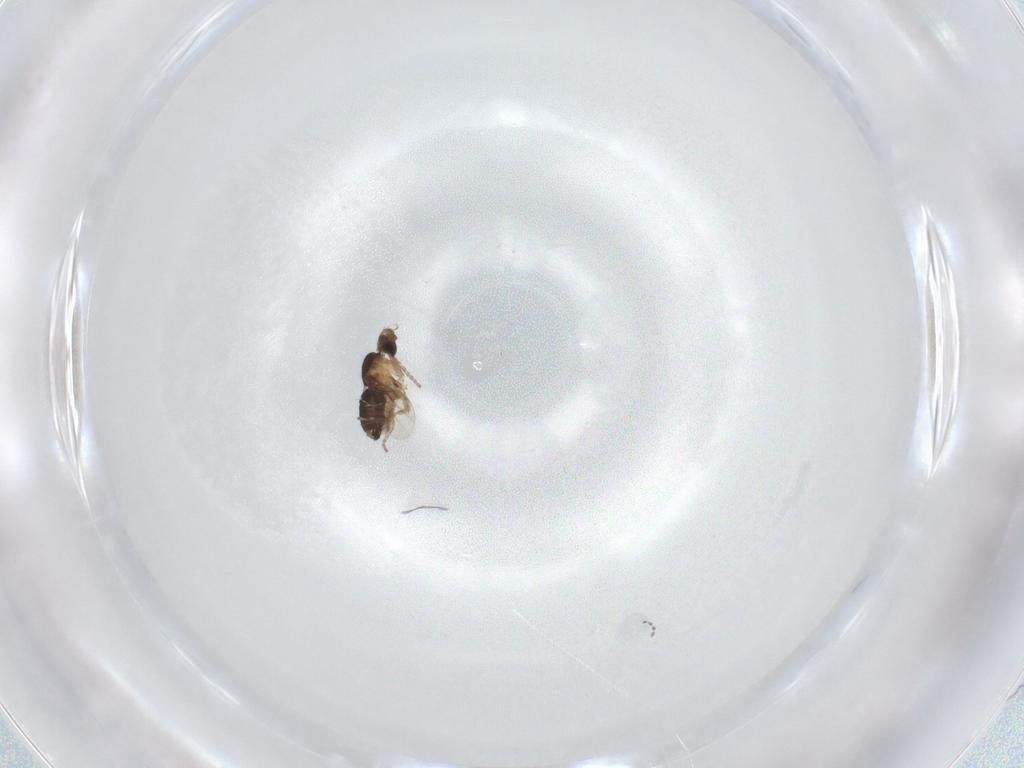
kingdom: Animalia
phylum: Arthropoda
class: Insecta
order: Diptera
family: Cecidomyiidae
